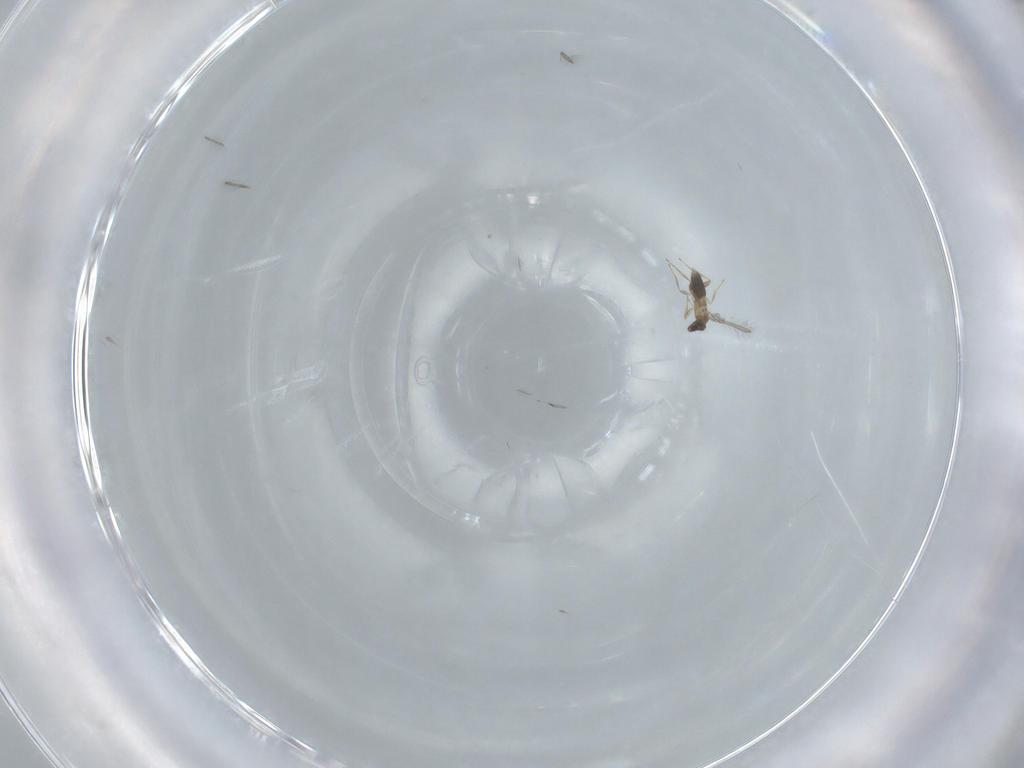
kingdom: Animalia
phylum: Arthropoda
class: Insecta
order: Hymenoptera
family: Mymaridae
